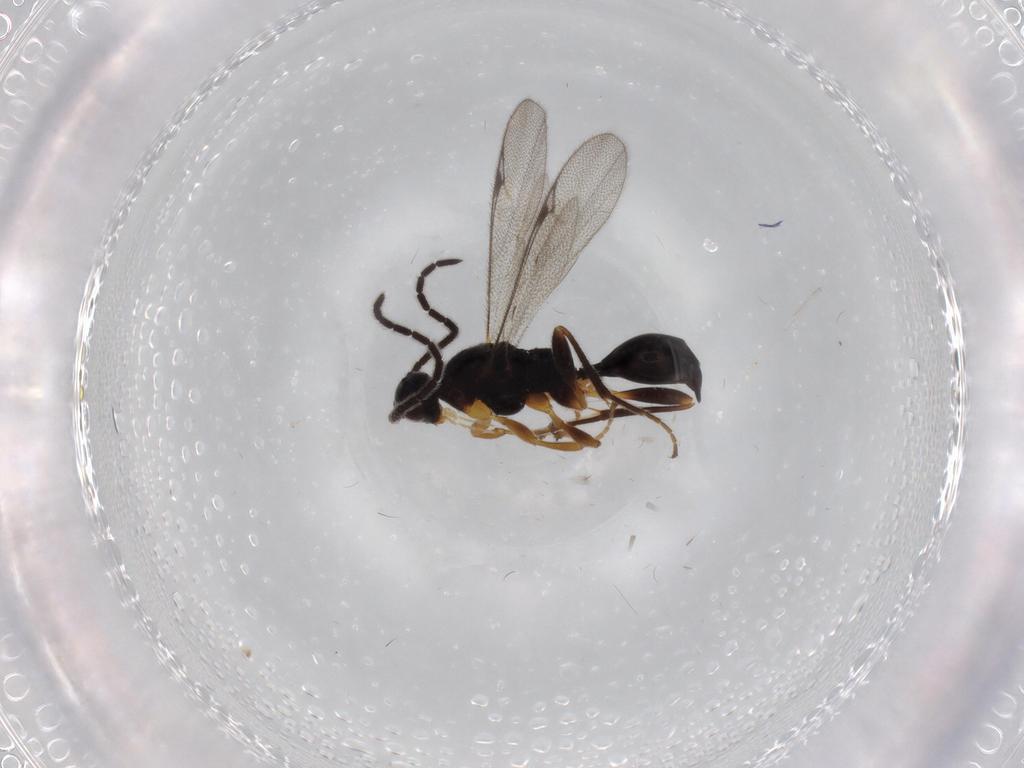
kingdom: Animalia
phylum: Arthropoda
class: Insecta
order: Hymenoptera
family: Proctotrupidae
